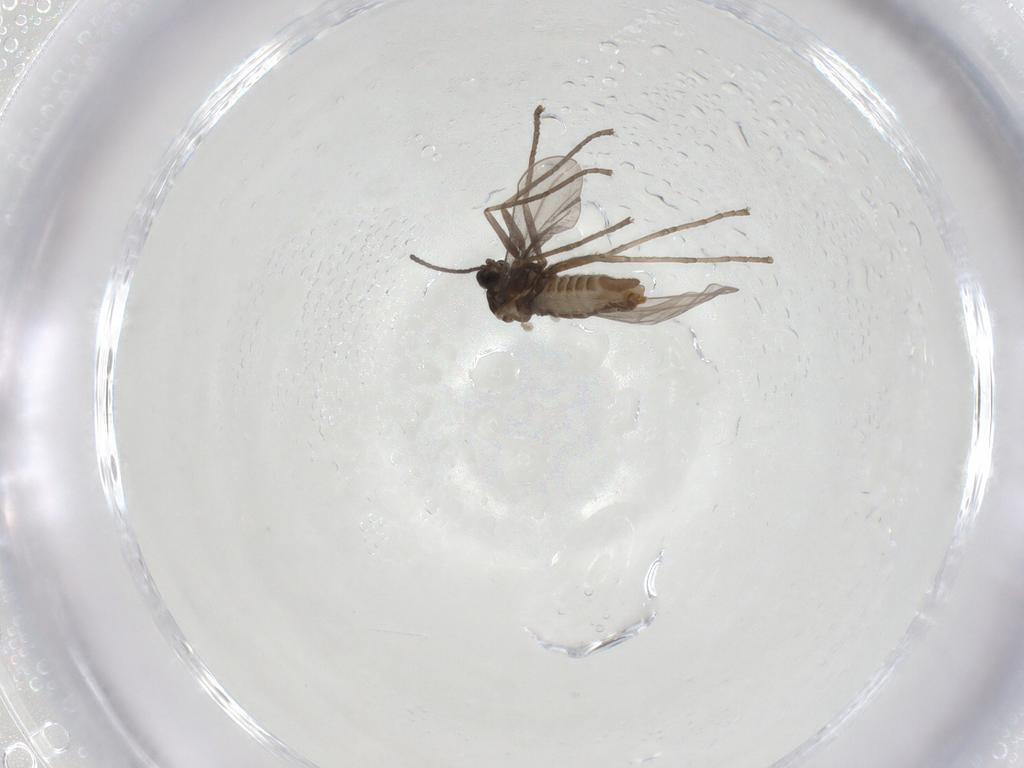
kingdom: Animalia
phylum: Arthropoda
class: Insecta
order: Diptera
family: Cecidomyiidae
